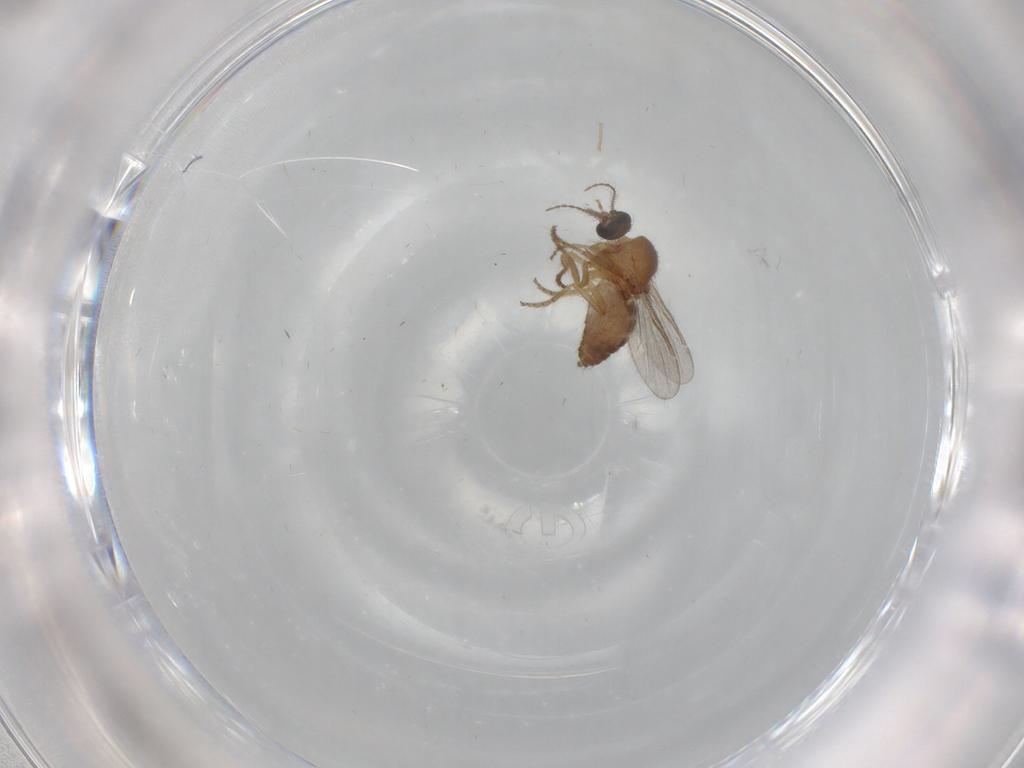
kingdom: Animalia
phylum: Arthropoda
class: Insecta
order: Diptera
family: Ceratopogonidae
